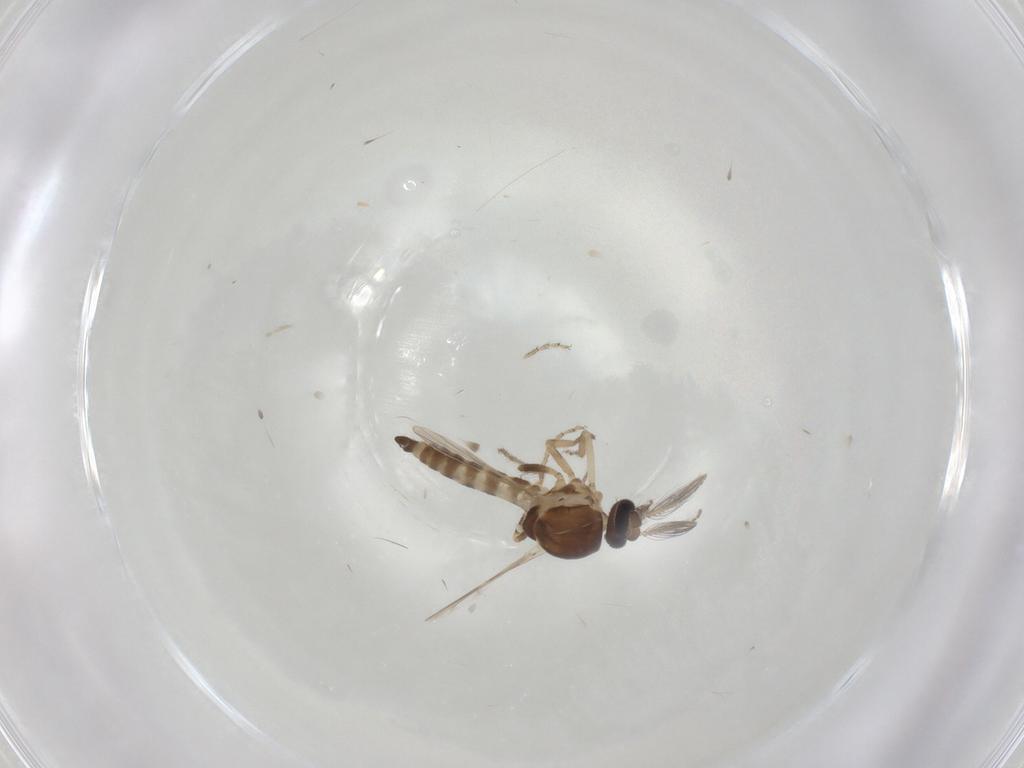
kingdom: Animalia
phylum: Arthropoda
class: Insecta
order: Diptera
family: Ceratopogonidae
